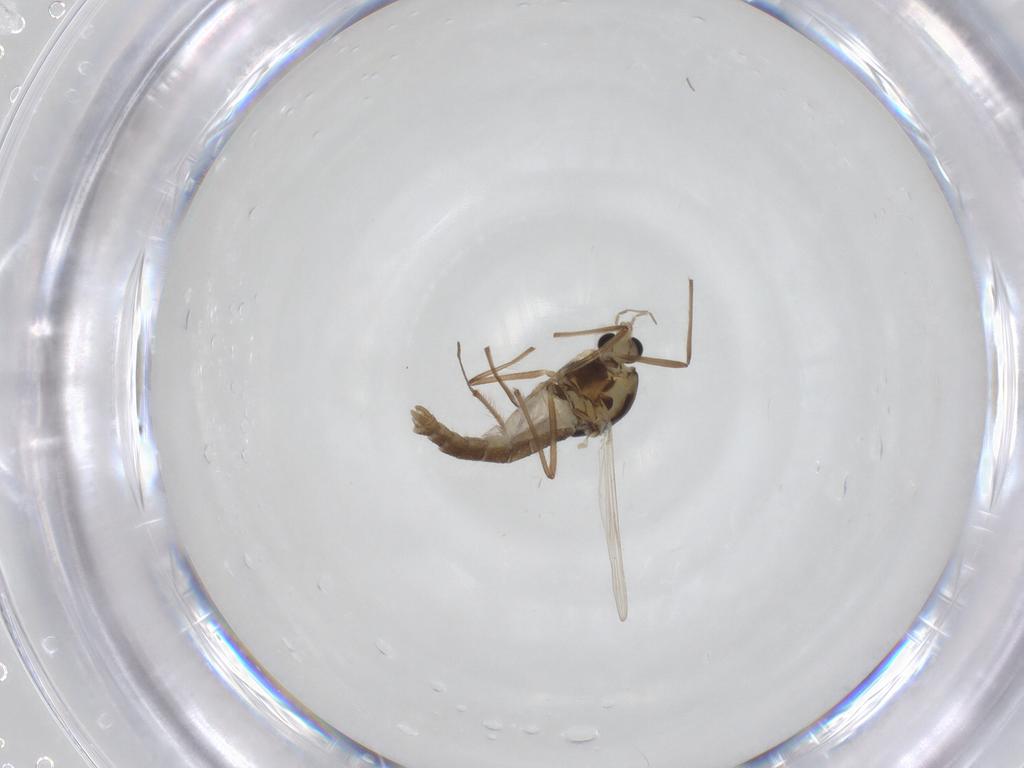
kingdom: Animalia
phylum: Arthropoda
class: Insecta
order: Diptera
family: Chironomidae
